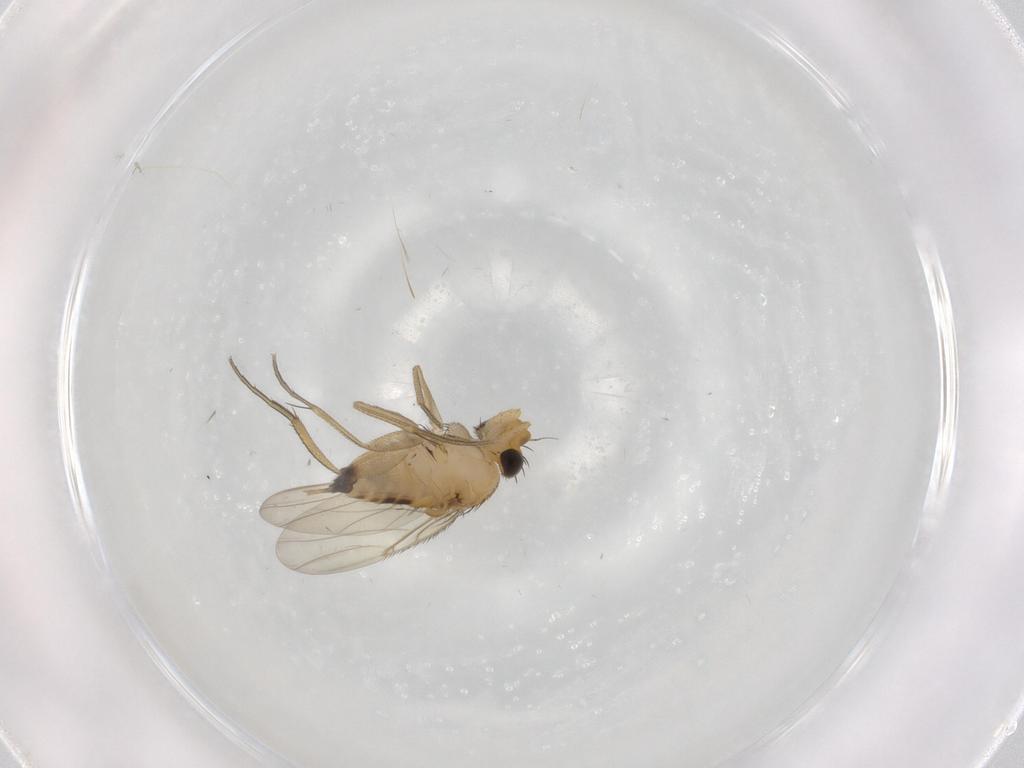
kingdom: Animalia
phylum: Arthropoda
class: Insecta
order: Diptera
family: Phoridae
